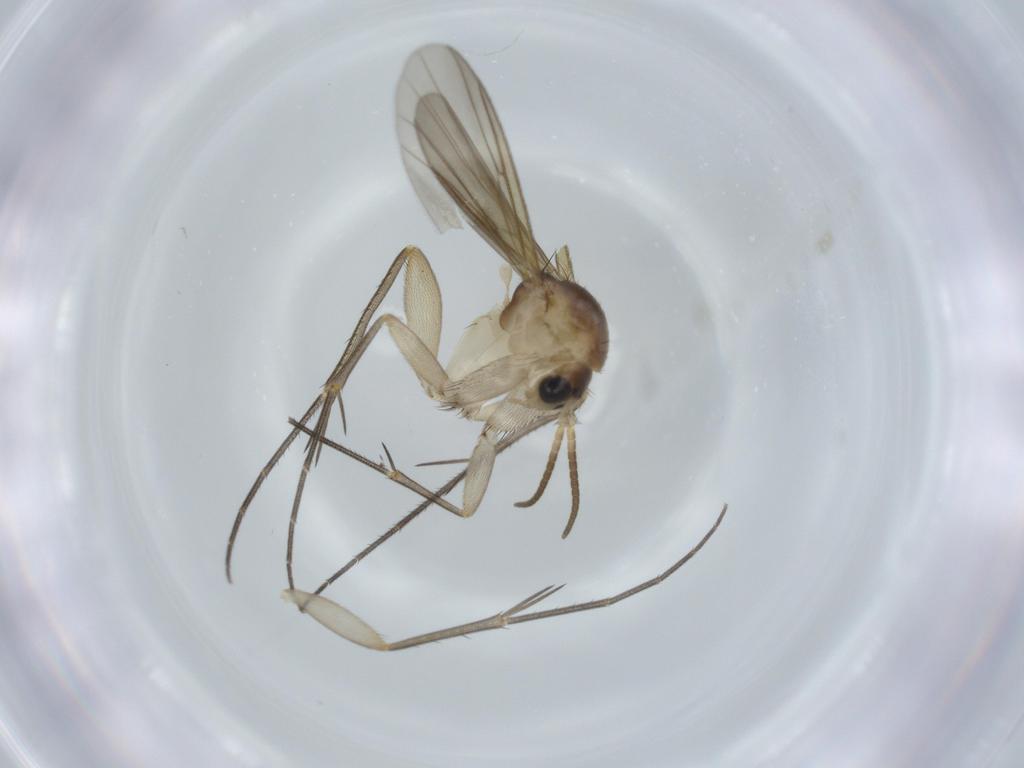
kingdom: Animalia
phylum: Arthropoda
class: Insecta
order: Diptera
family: Mycetophilidae
